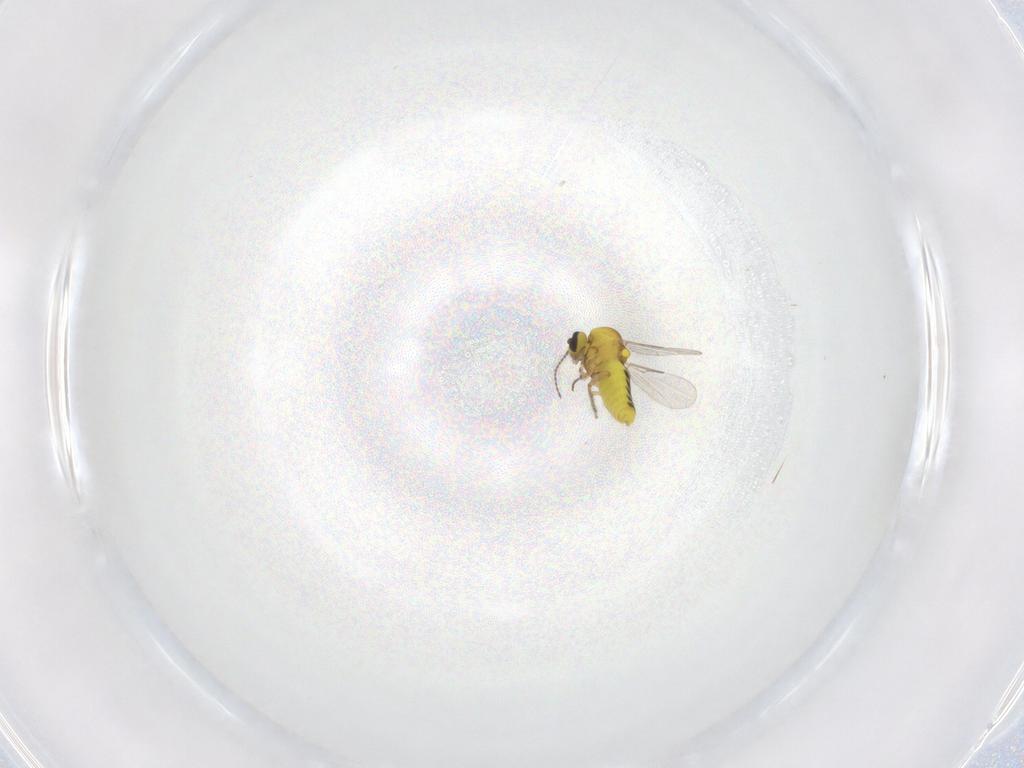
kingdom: Animalia
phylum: Arthropoda
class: Insecta
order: Diptera
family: Ceratopogonidae
